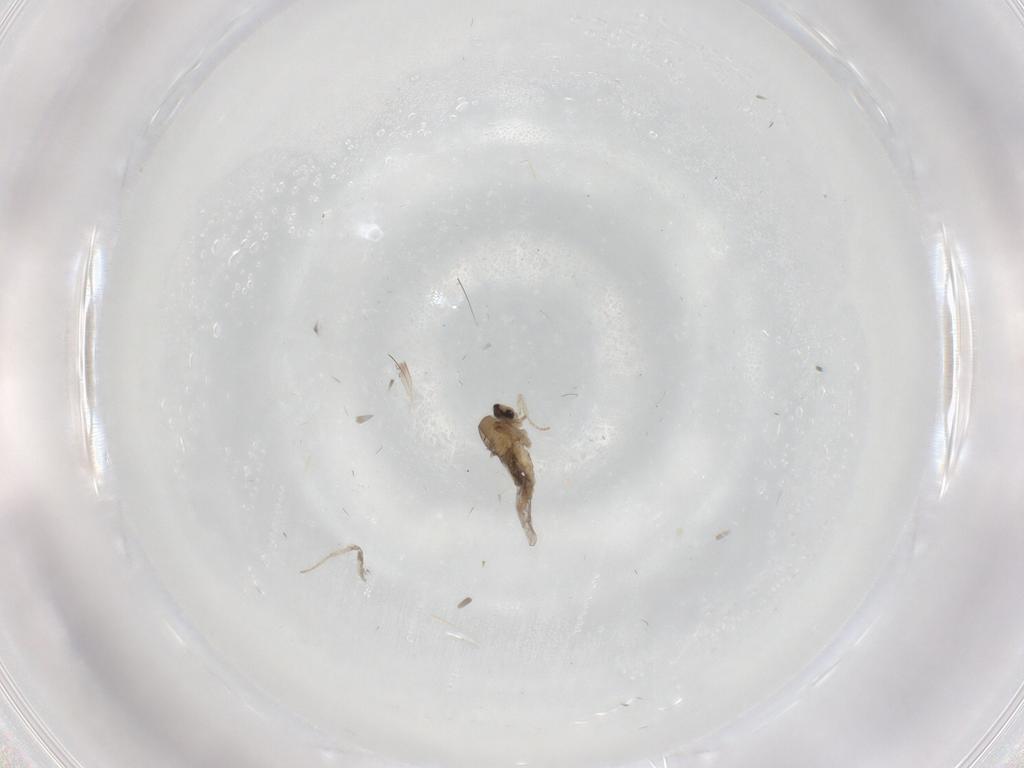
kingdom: Animalia
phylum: Arthropoda
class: Insecta
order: Diptera
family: Cecidomyiidae
